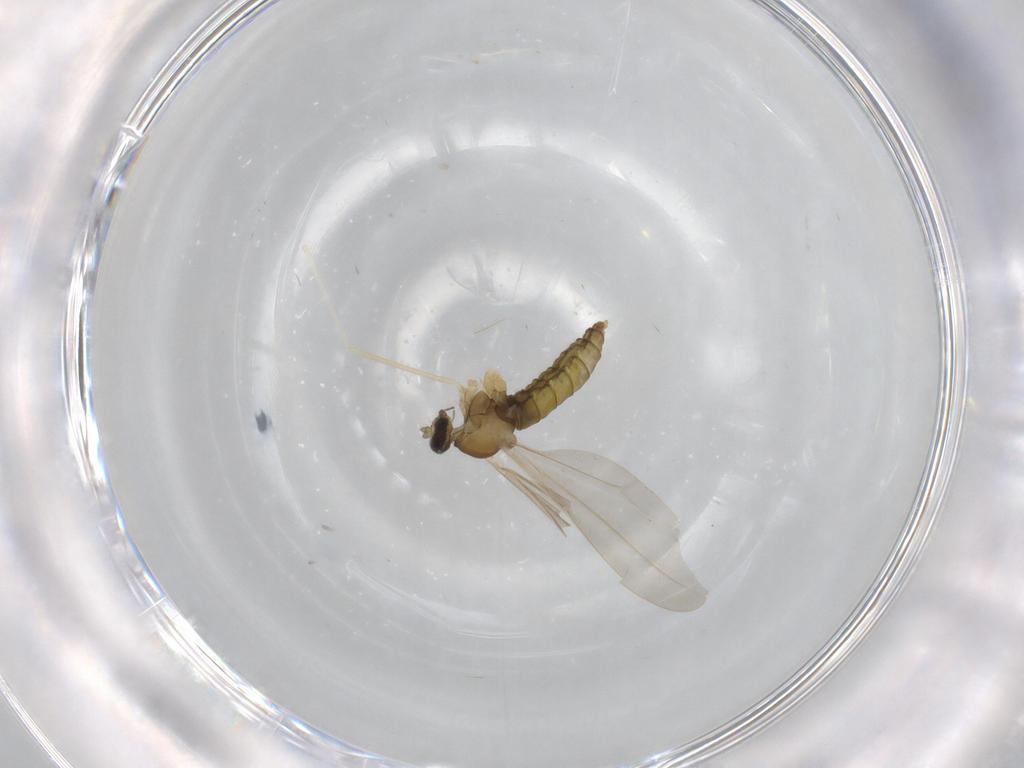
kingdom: Animalia
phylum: Arthropoda
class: Insecta
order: Diptera
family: Cecidomyiidae
